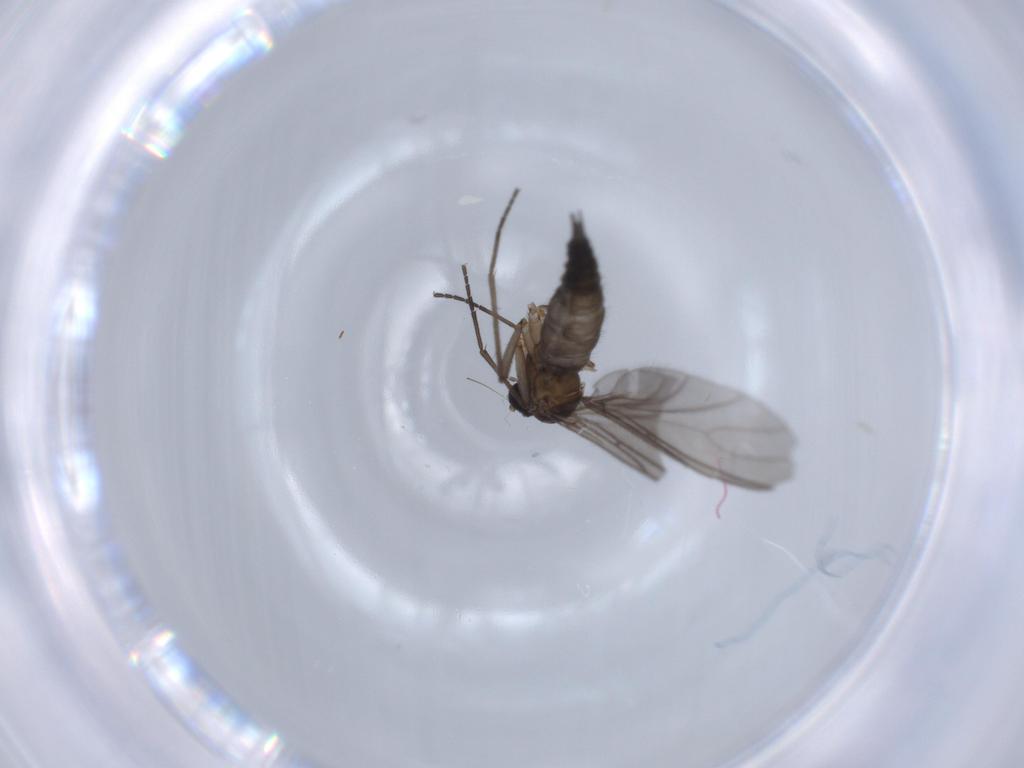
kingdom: Animalia
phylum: Arthropoda
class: Insecta
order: Diptera
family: Sciaridae
